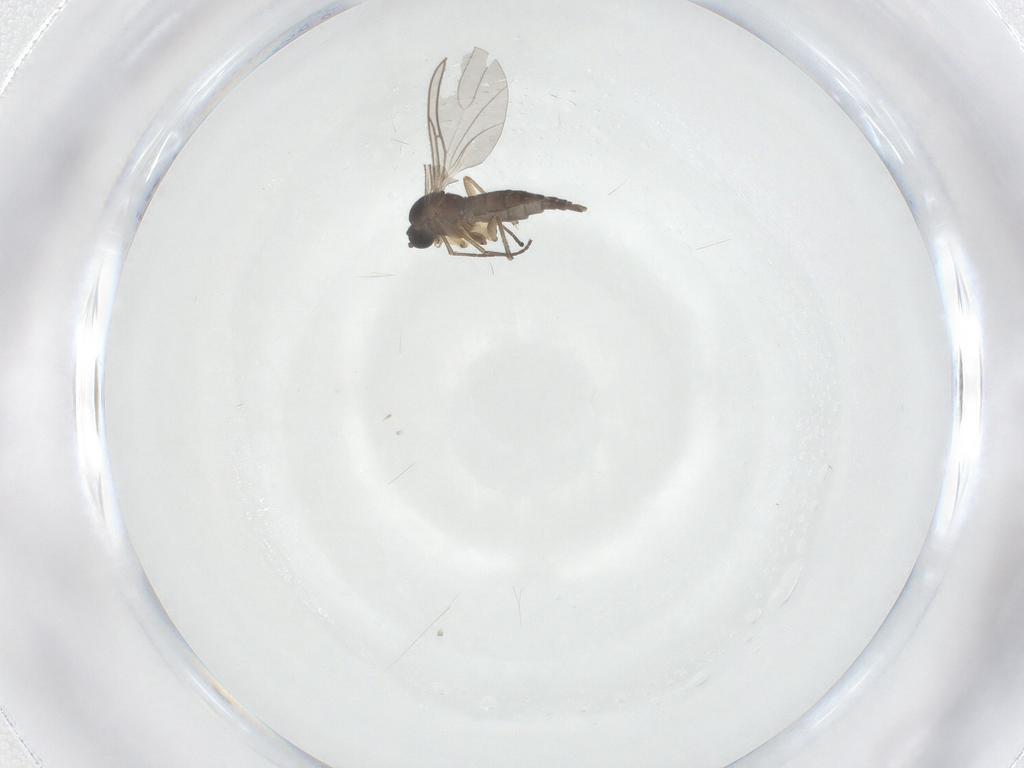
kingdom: Animalia
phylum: Arthropoda
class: Insecta
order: Diptera
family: Sciaridae
